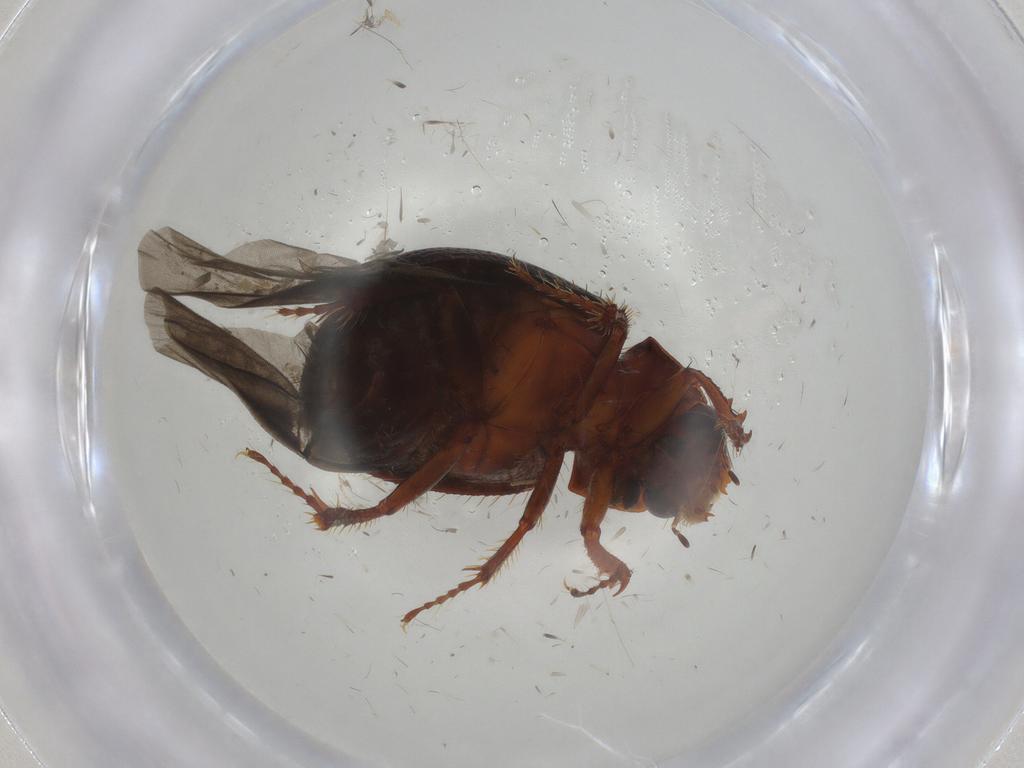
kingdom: Animalia
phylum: Arthropoda
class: Insecta
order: Coleoptera
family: Hybosoridae
